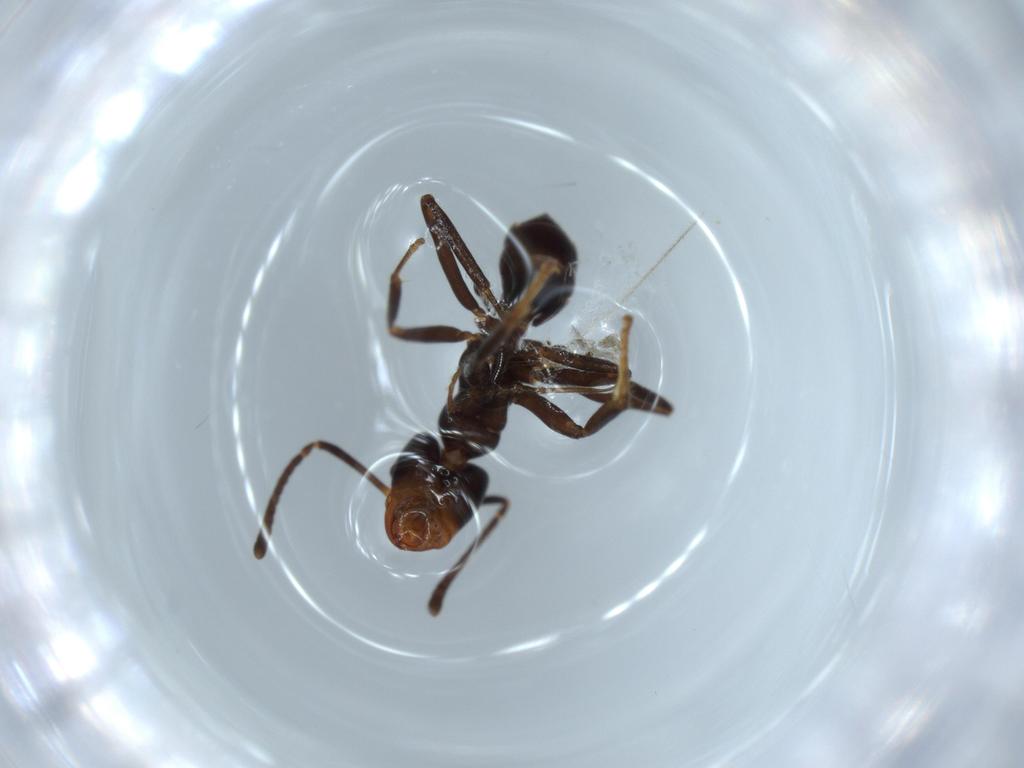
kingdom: Animalia
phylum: Arthropoda
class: Insecta
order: Hymenoptera
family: Formicidae
